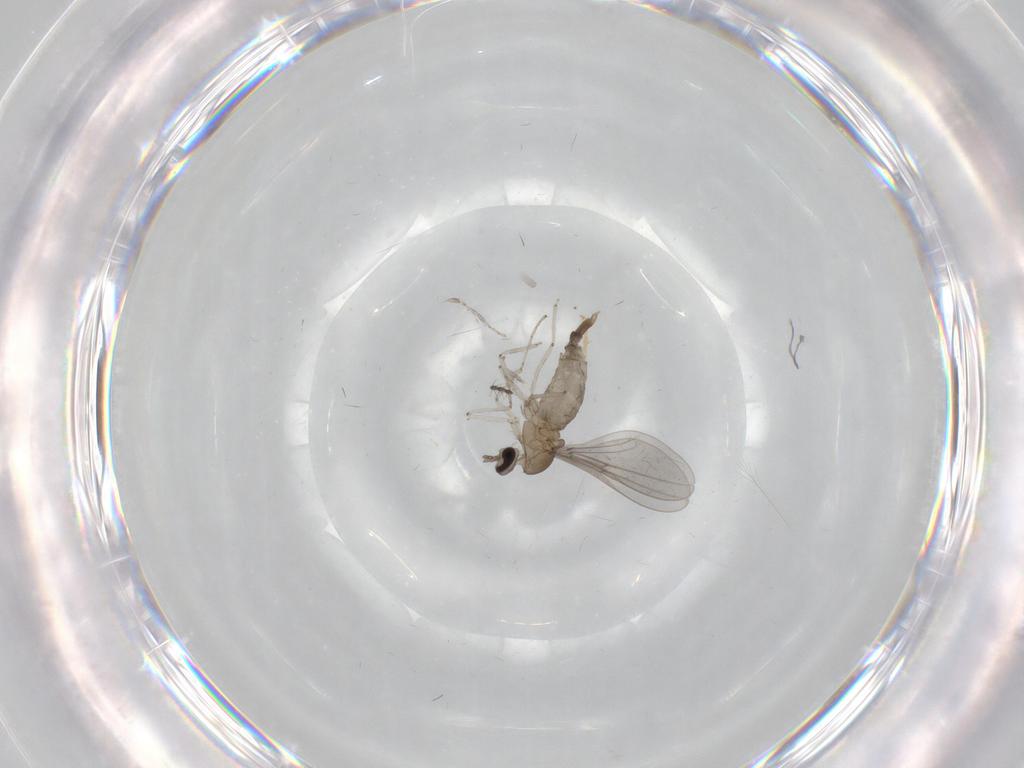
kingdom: Animalia
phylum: Arthropoda
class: Insecta
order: Diptera
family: Cecidomyiidae
